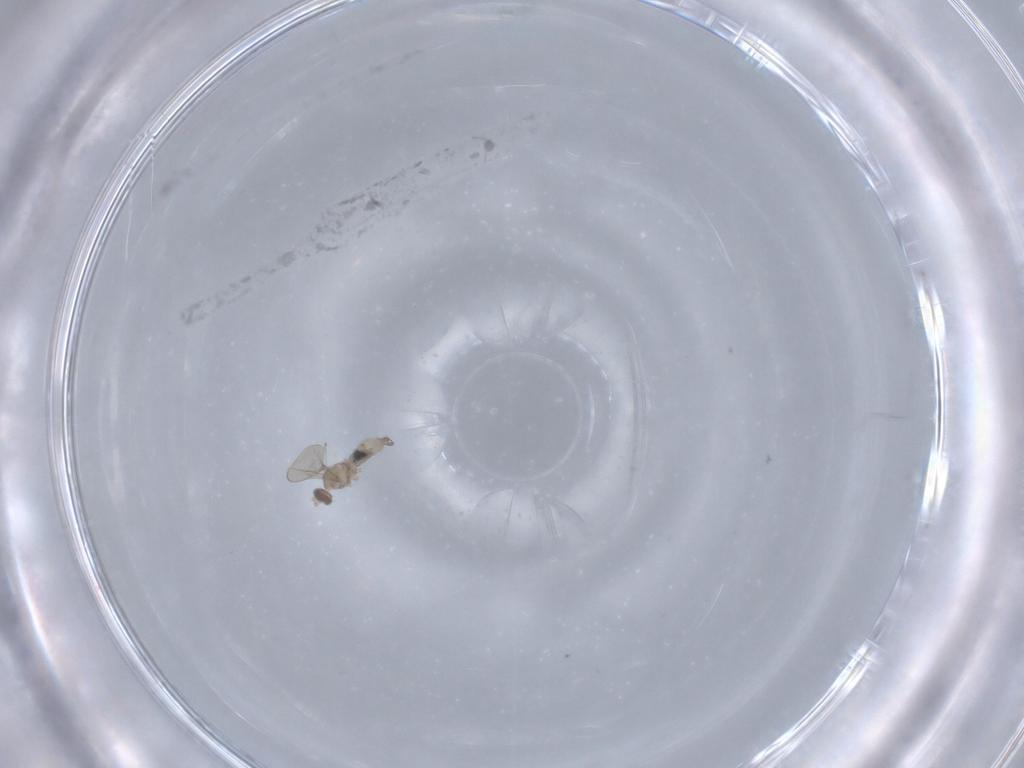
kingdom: Animalia
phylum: Arthropoda
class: Insecta
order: Diptera
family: Cecidomyiidae
